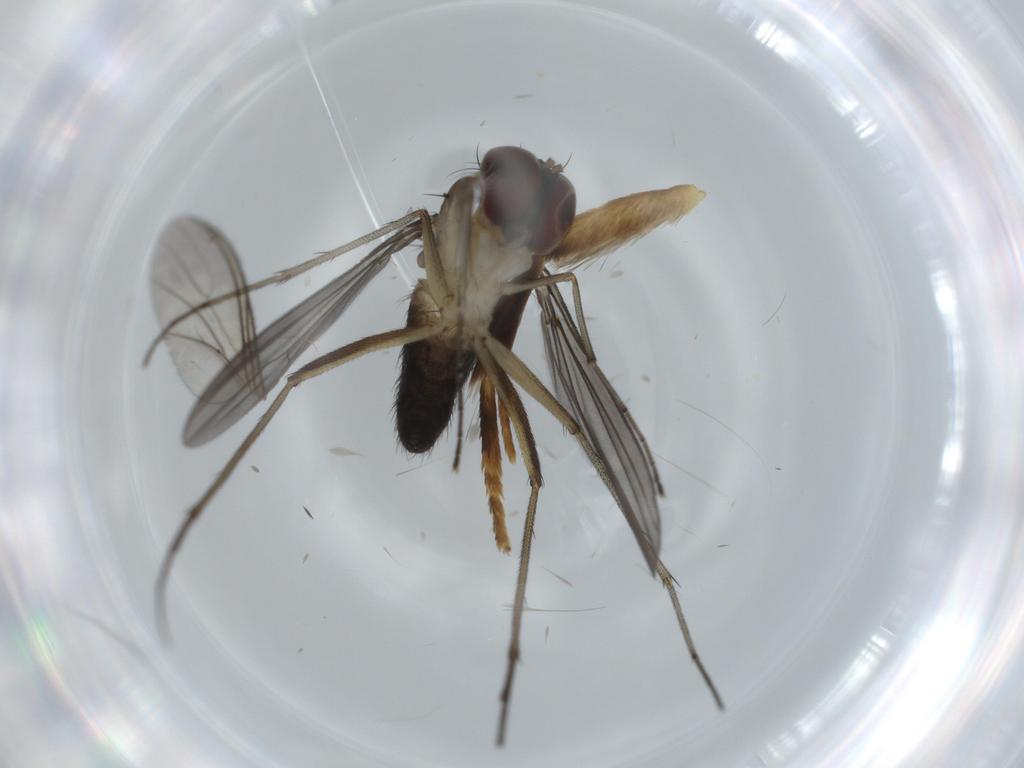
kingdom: Animalia
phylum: Arthropoda
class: Insecta
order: Diptera
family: Dolichopodidae
